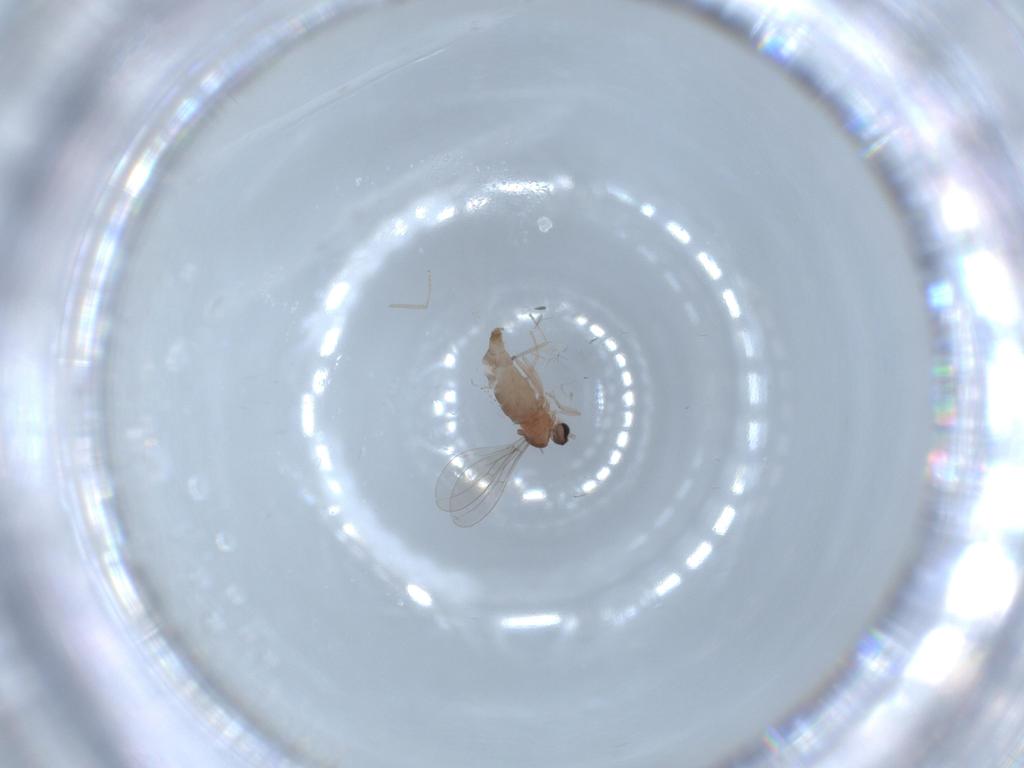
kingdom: Animalia
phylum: Arthropoda
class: Insecta
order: Diptera
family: Cecidomyiidae
